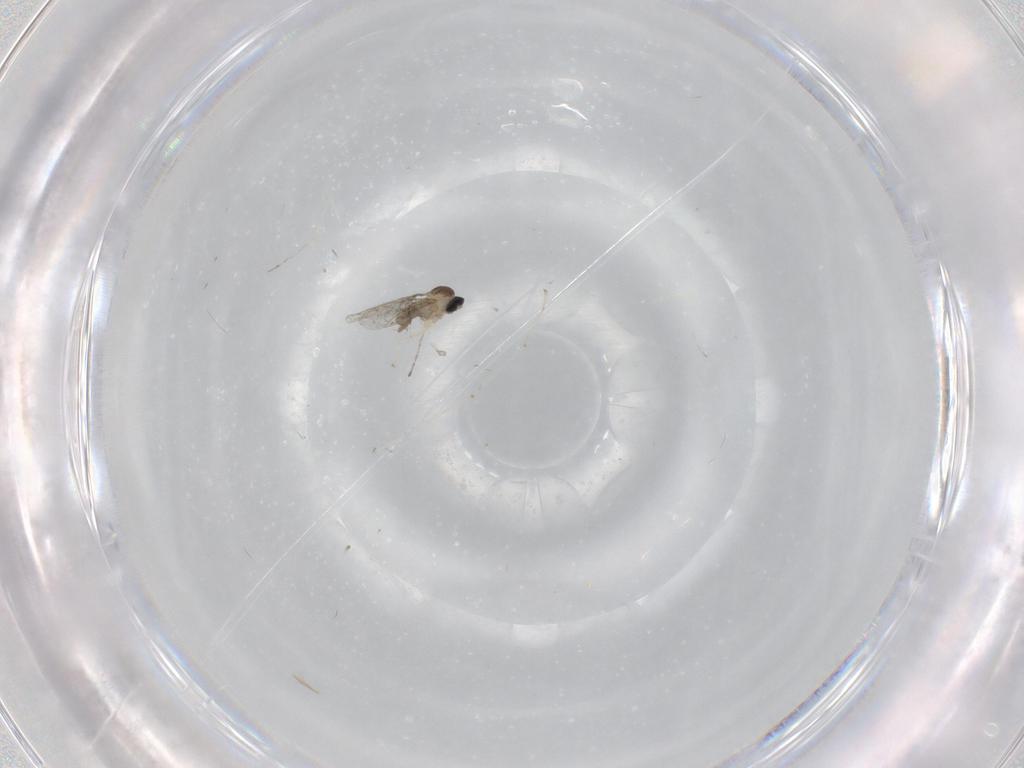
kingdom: Animalia
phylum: Arthropoda
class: Insecta
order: Diptera
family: Cecidomyiidae
